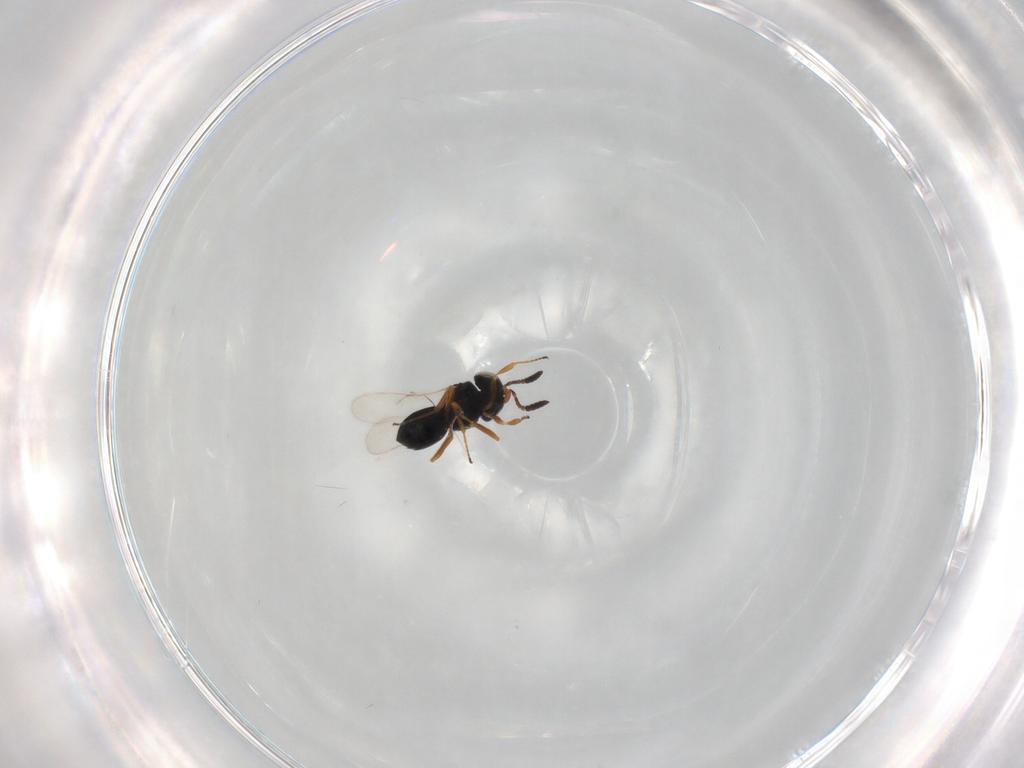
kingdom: Animalia
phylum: Arthropoda
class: Insecta
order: Hymenoptera
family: Scelionidae
